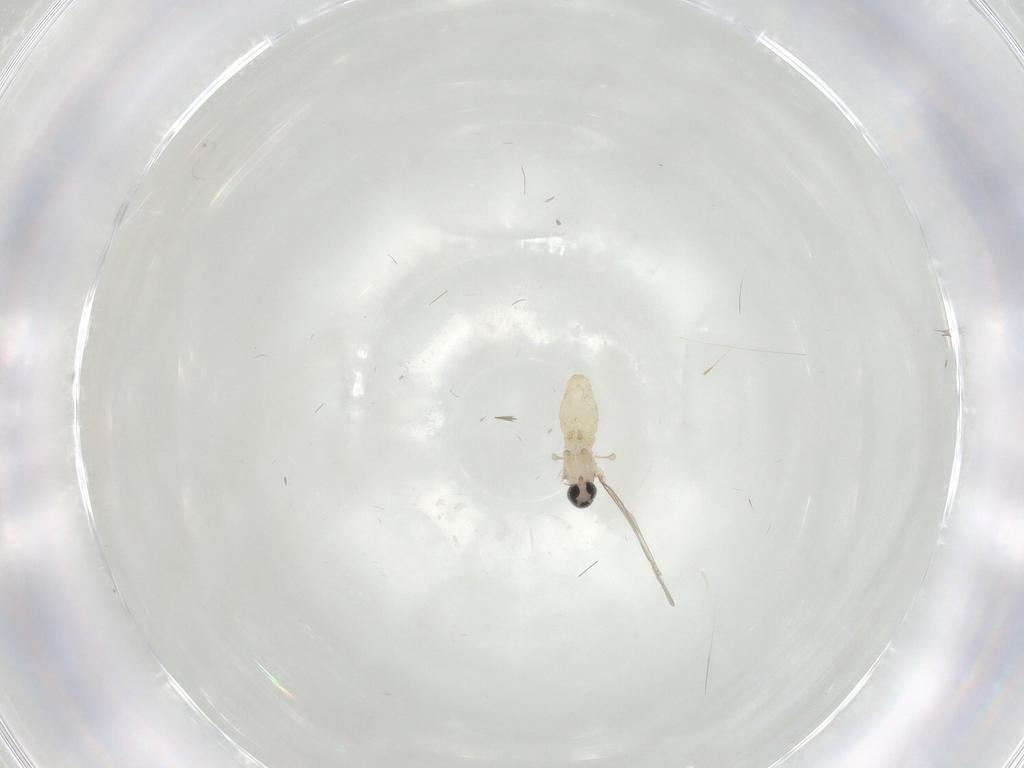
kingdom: Animalia
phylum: Arthropoda
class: Insecta
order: Diptera
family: Cecidomyiidae
